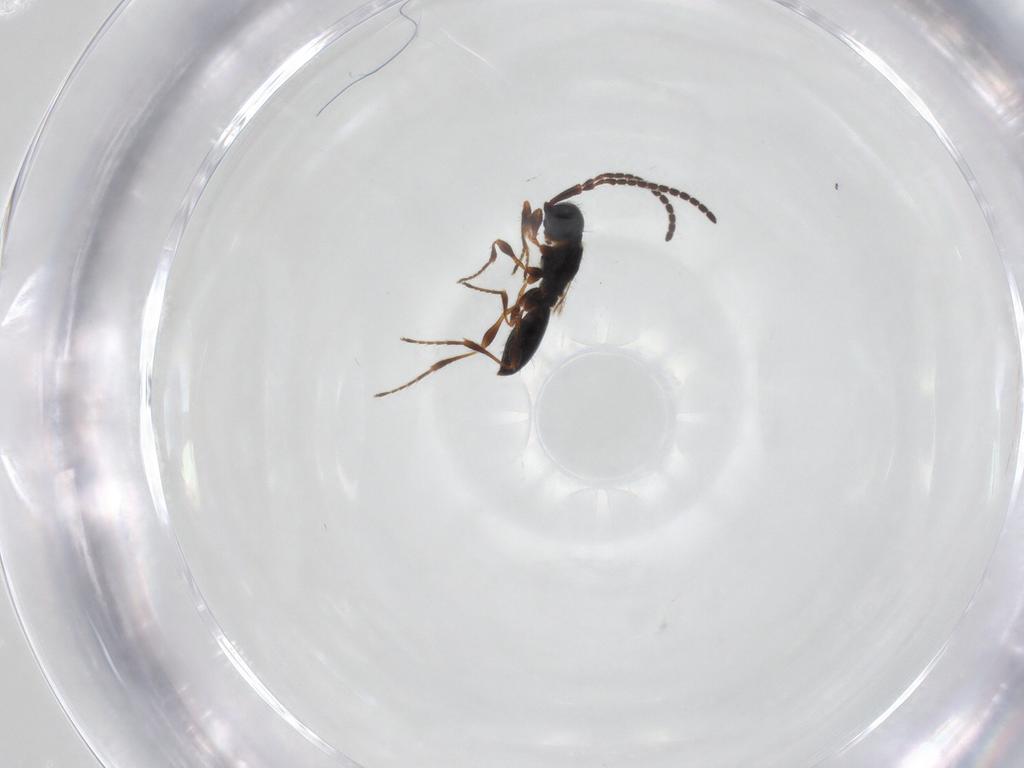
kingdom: Animalia
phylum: Arthropoda
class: Insecta
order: Hymenoptera
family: Diapriidae
